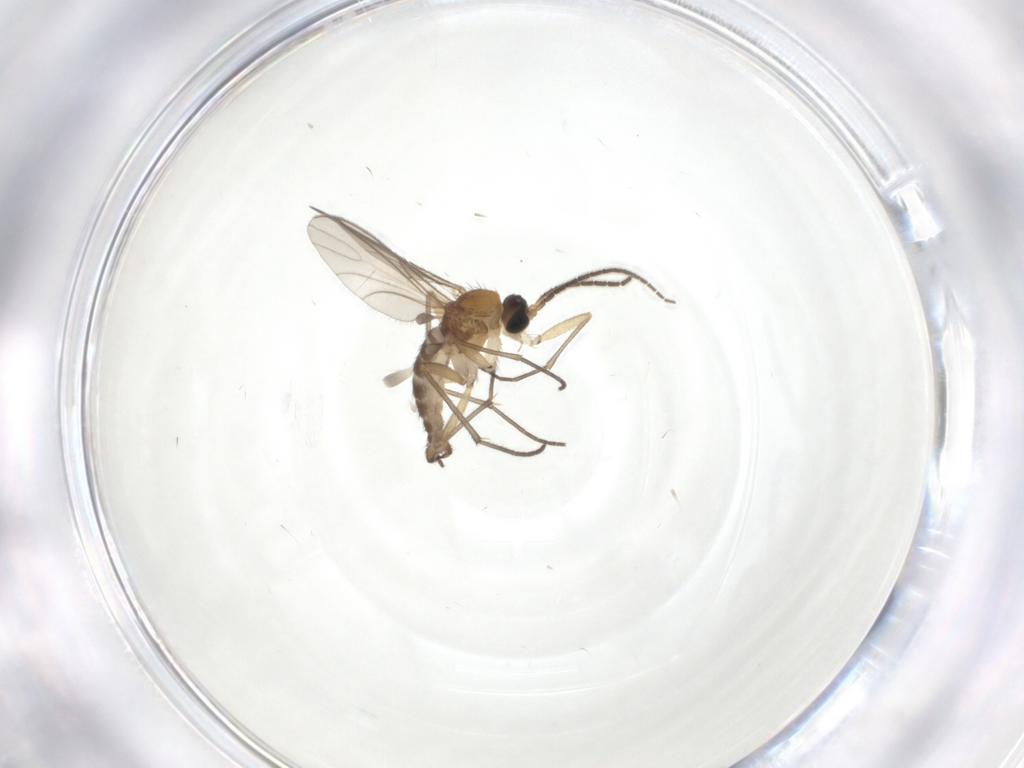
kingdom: Animalia
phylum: Arthropoda
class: Insecta
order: Diptera
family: Sciaridae
